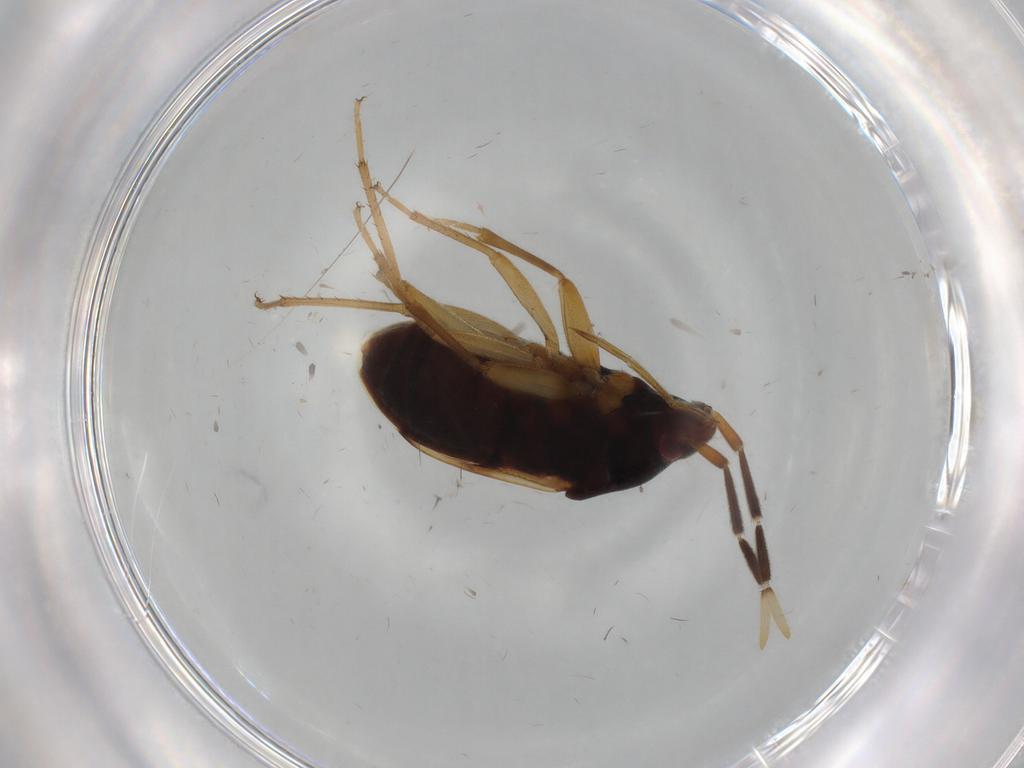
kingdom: Animalia
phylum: Arthropoda
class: Insecta
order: Hemiptera
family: Rhyparochromidae
